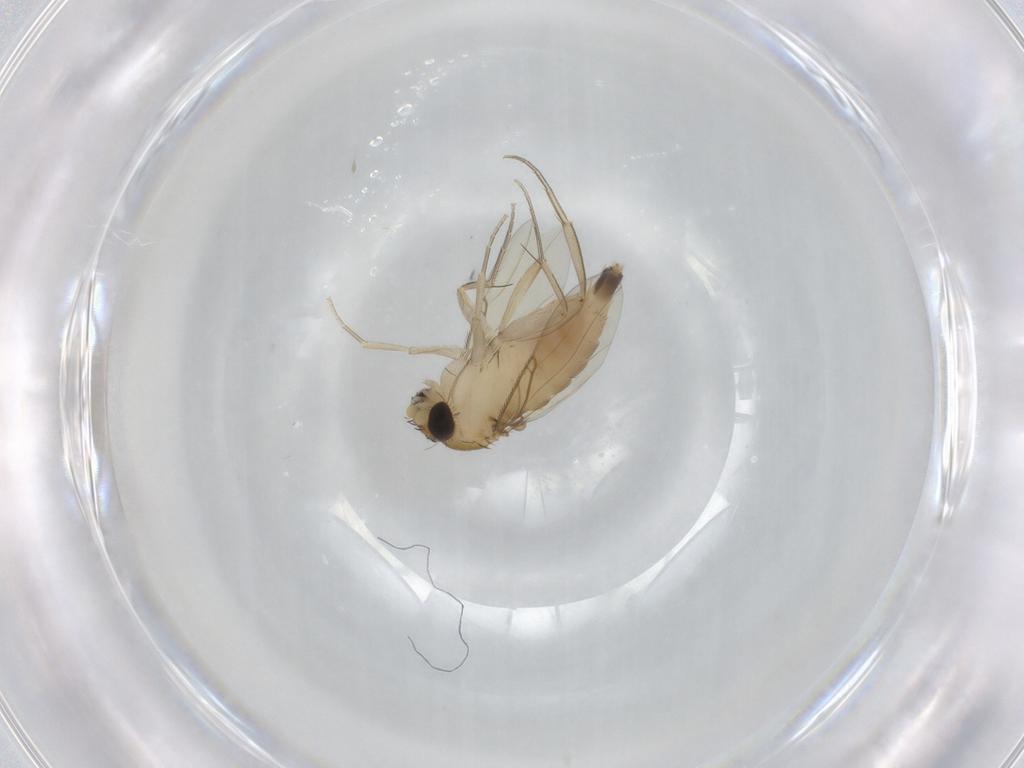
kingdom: Animalia
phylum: Arthropoda
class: Insecta
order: Diptera
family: Phoridae
